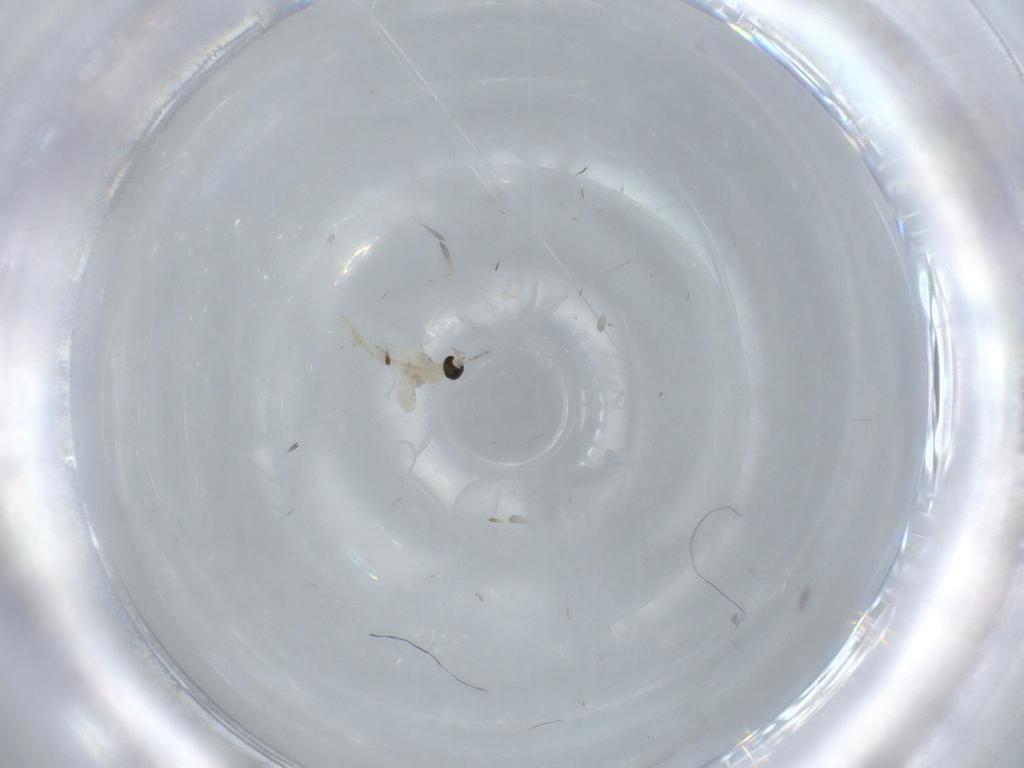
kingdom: Animalia
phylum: Arthropoda
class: Insecta
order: Diptera
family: Cecidomyiidae
